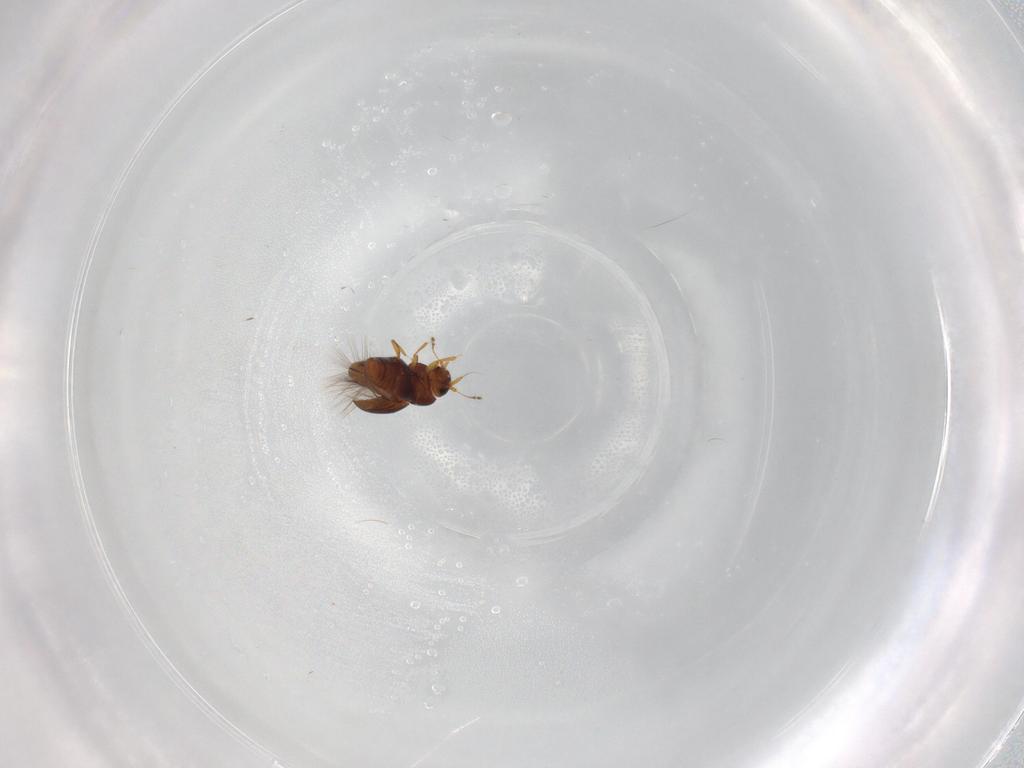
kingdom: Animalia
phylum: Arthropoda
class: Insecta
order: Coleoptera
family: Ptiliidae
